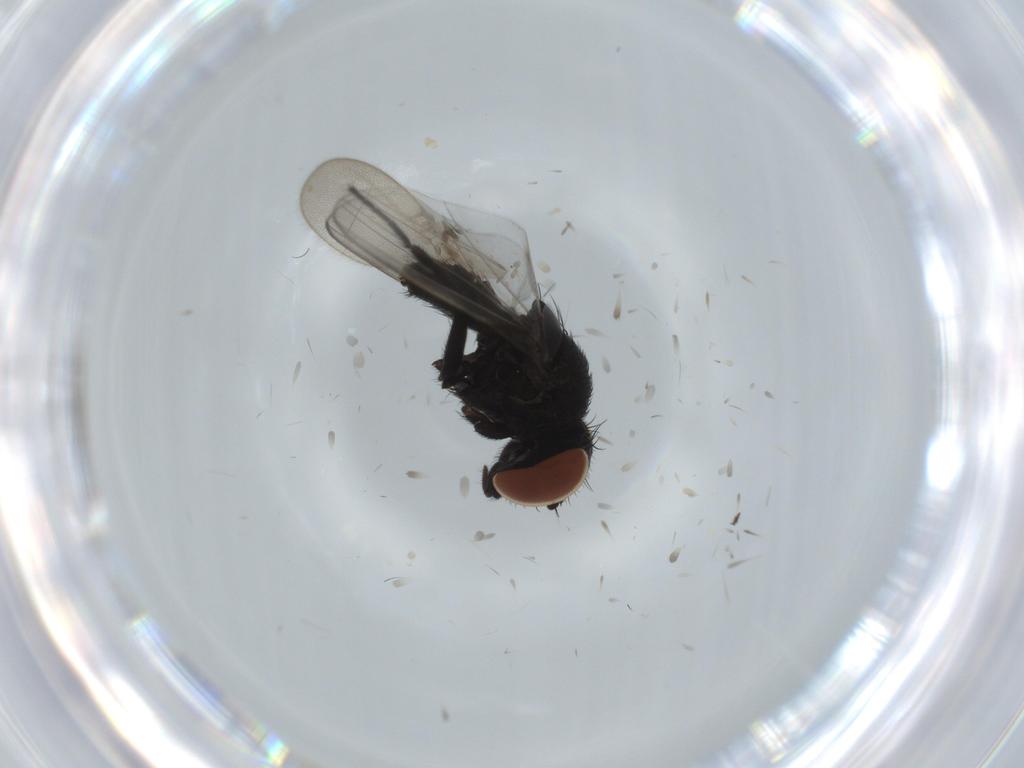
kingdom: Animalia
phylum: Arthropoda
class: Insecta
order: Diptera
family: Milichiidae
